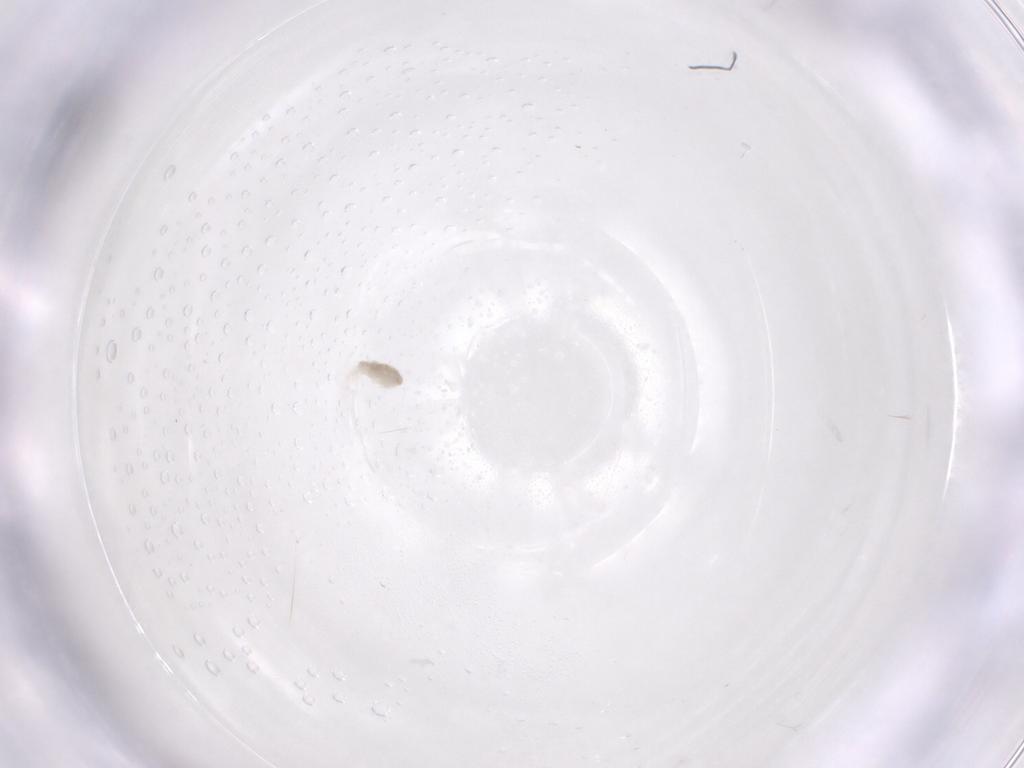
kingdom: Animalia
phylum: Arthropoda
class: Arachnida
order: Trombidiformes
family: Eupodidae
